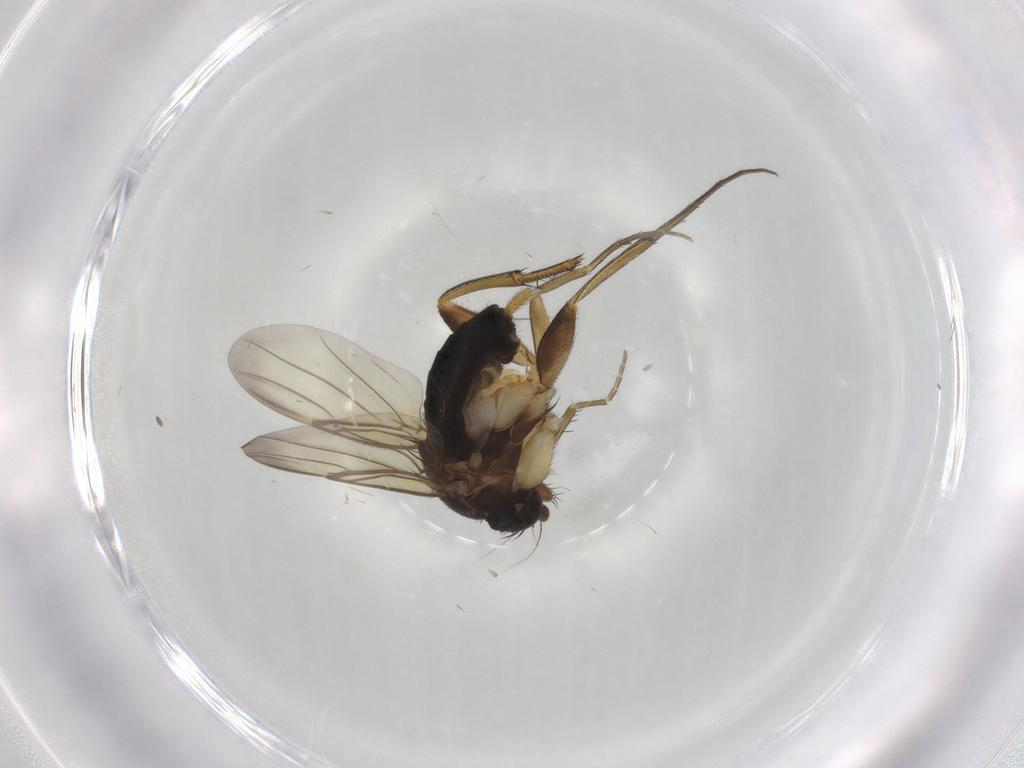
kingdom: Animalia
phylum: Arthropoda
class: Insecta
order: Diptera
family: Phoridae
